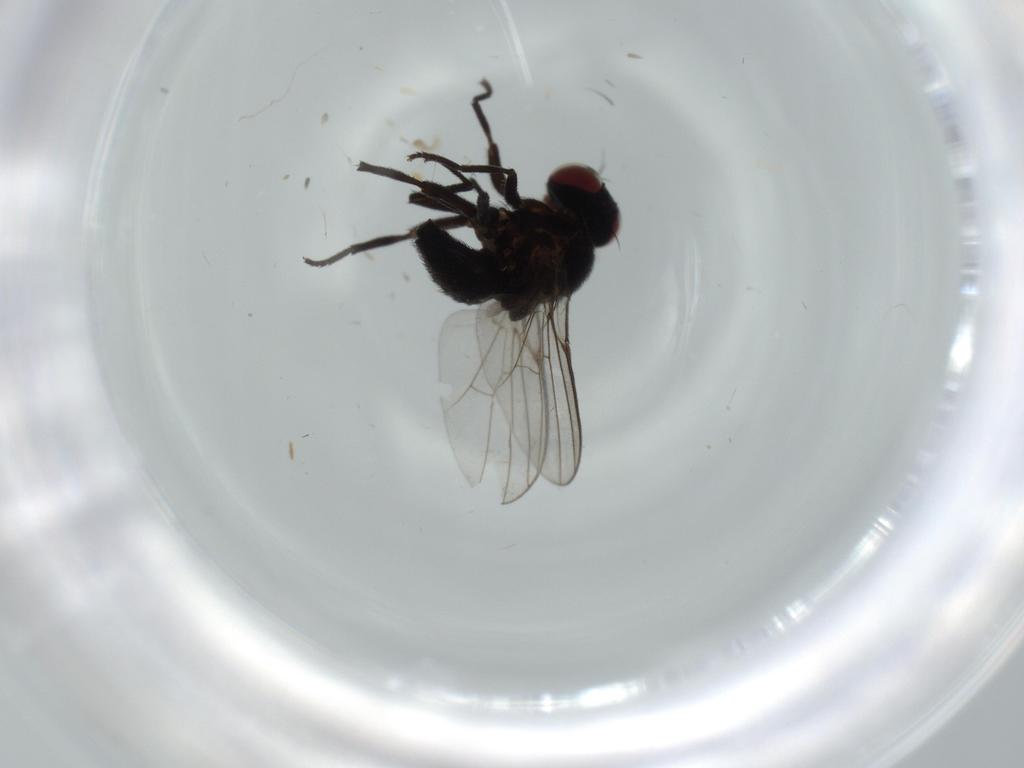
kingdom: Animalia
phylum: Arthropoda
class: Insecta
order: Diptera
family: Agromyzidae
